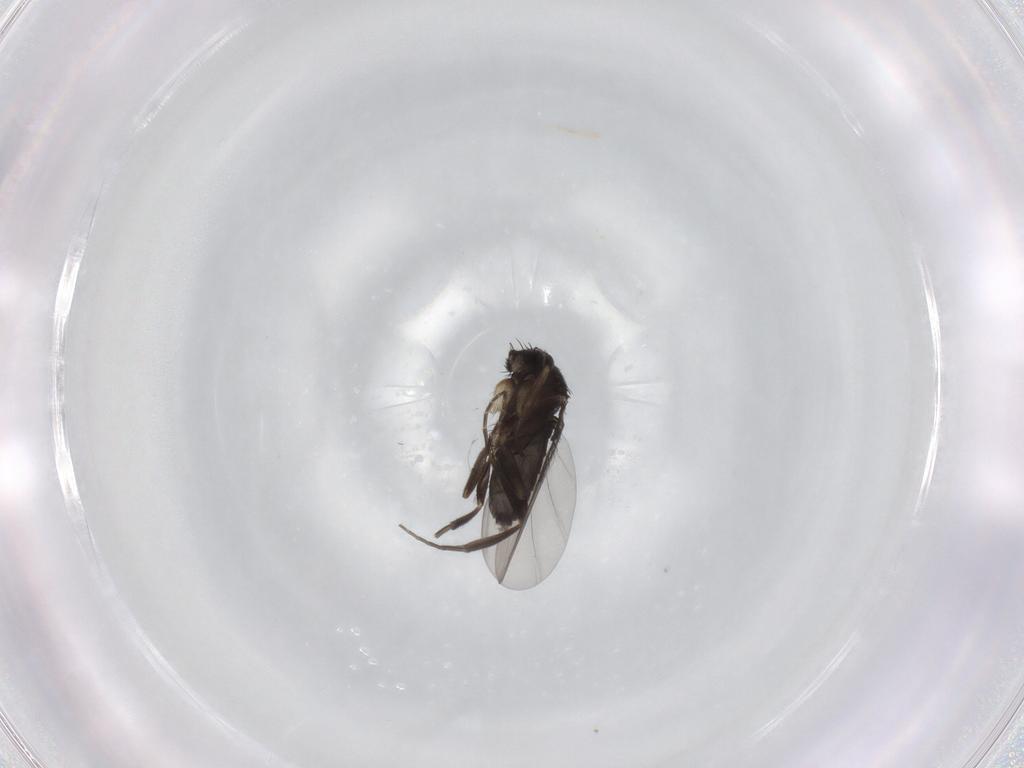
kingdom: Animalia
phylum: Arthropoda
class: Insecta
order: Diptera
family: Phoridae
